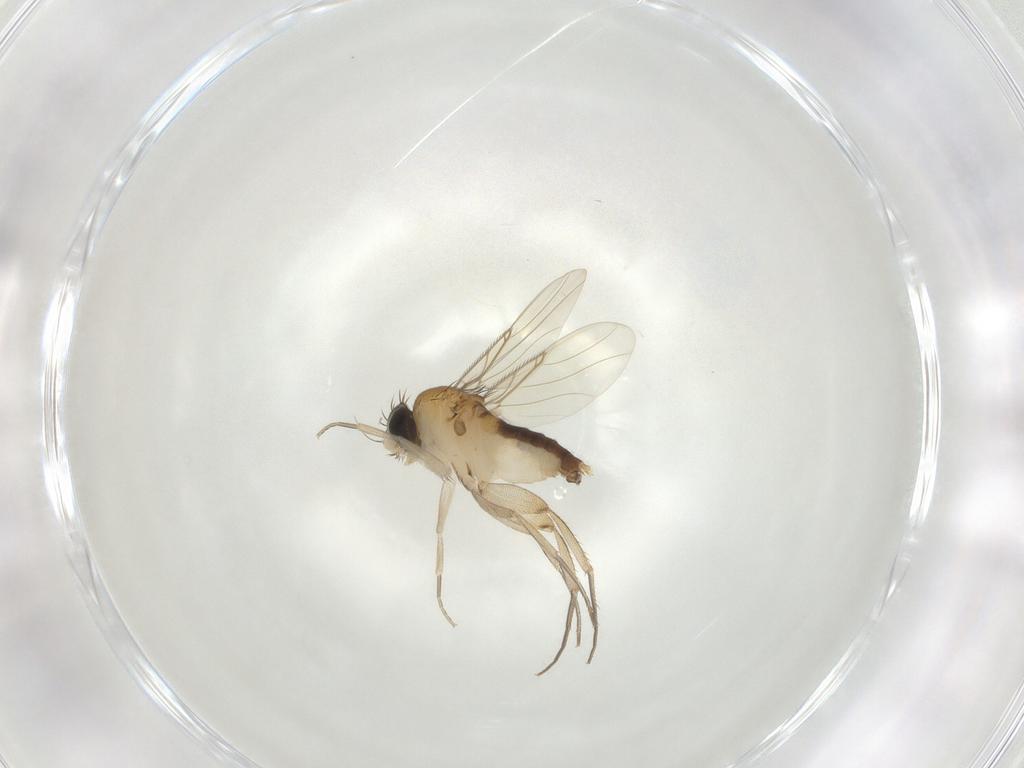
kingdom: Animalia
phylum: Arthropoda
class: Insecta
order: Diptera
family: Phoridae
